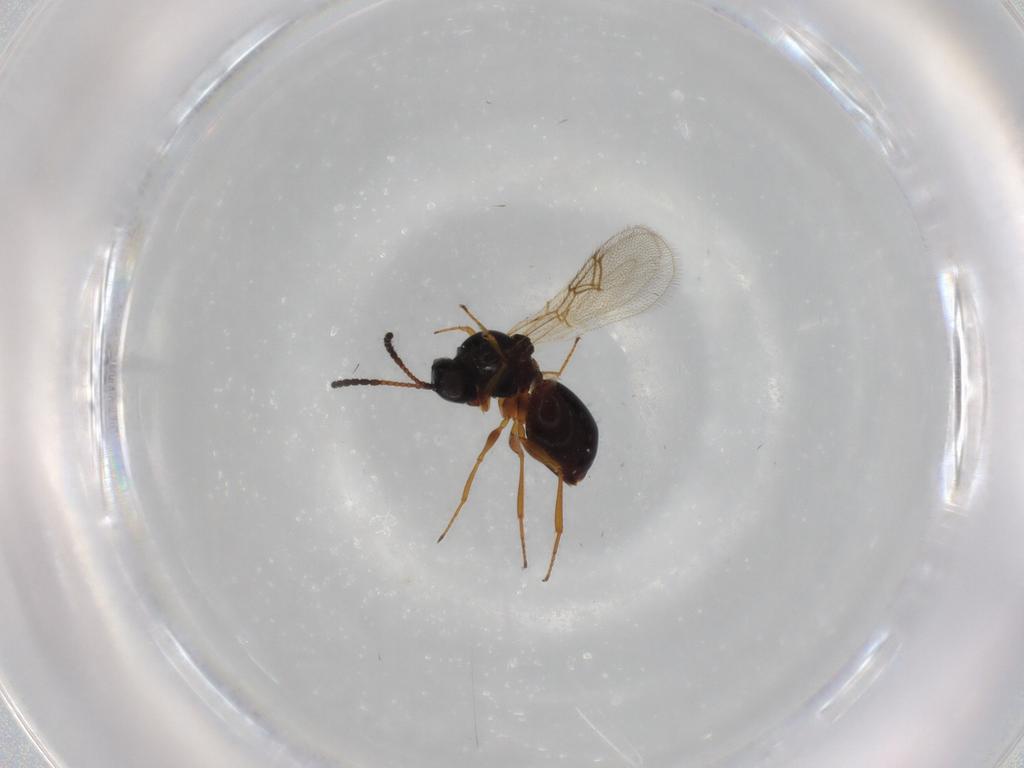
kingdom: Animalia
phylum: Arthropoda
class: Insecta
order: Hymenoptera
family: Figitidae
